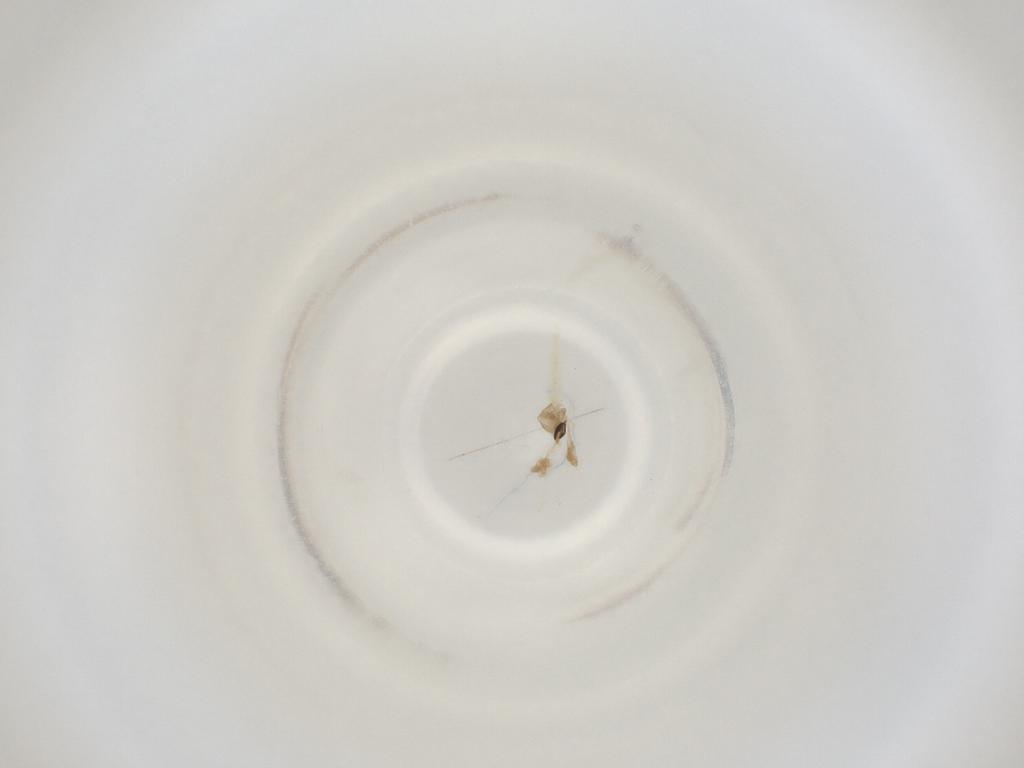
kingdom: Animalia
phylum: Arthropoda
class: Insecta
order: Diptera
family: Cecidomyiidae
